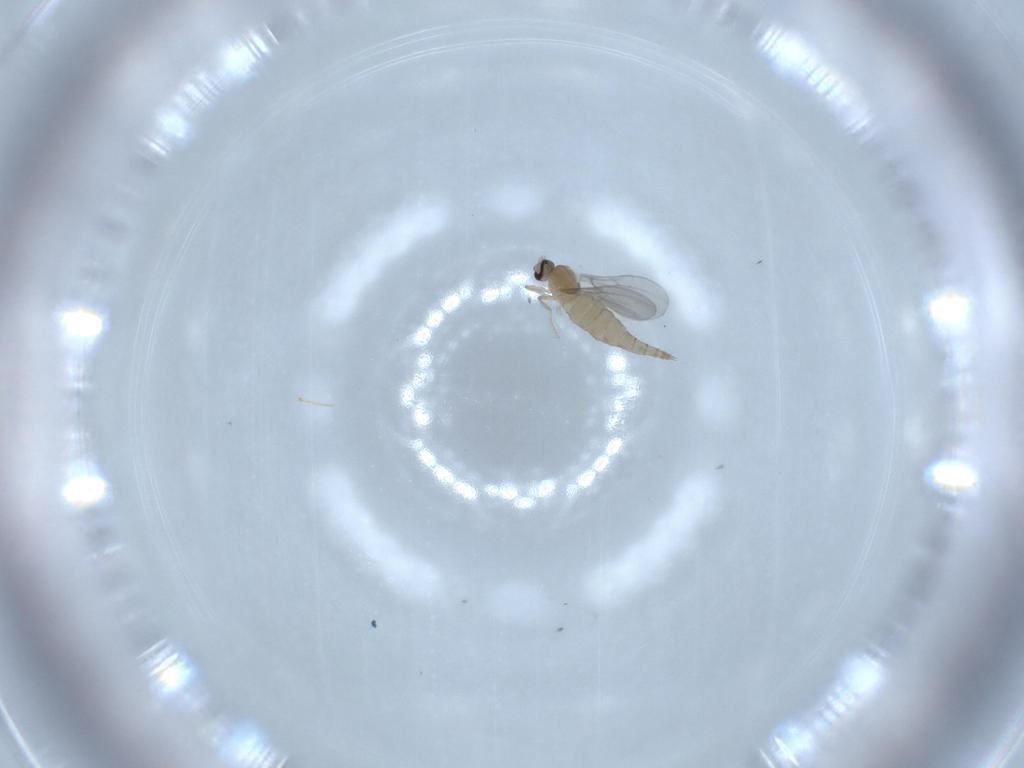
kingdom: Animalia
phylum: Arthropoda
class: Insecta
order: Diptera
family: Cecidomyiidae
